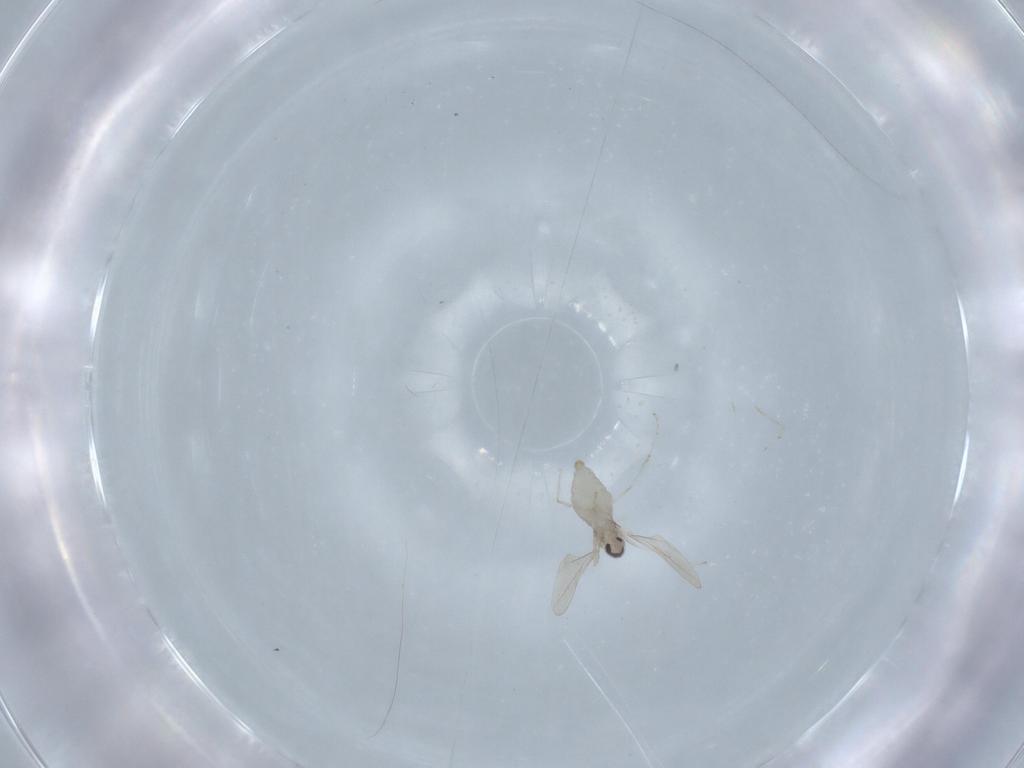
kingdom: Animalia
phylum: Arthropoda
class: Insecta
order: Diptera
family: Cecidomyiidae
